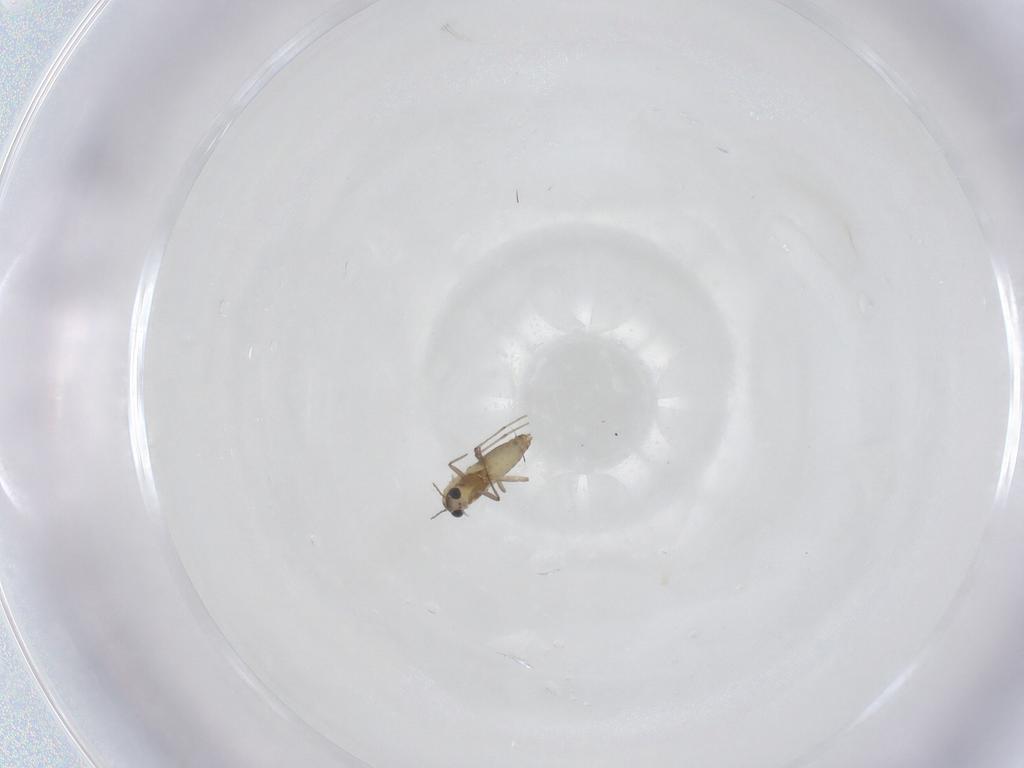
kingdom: Animalia
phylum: Arthropoda
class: Insecta
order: Diptera
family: Chironomidae
